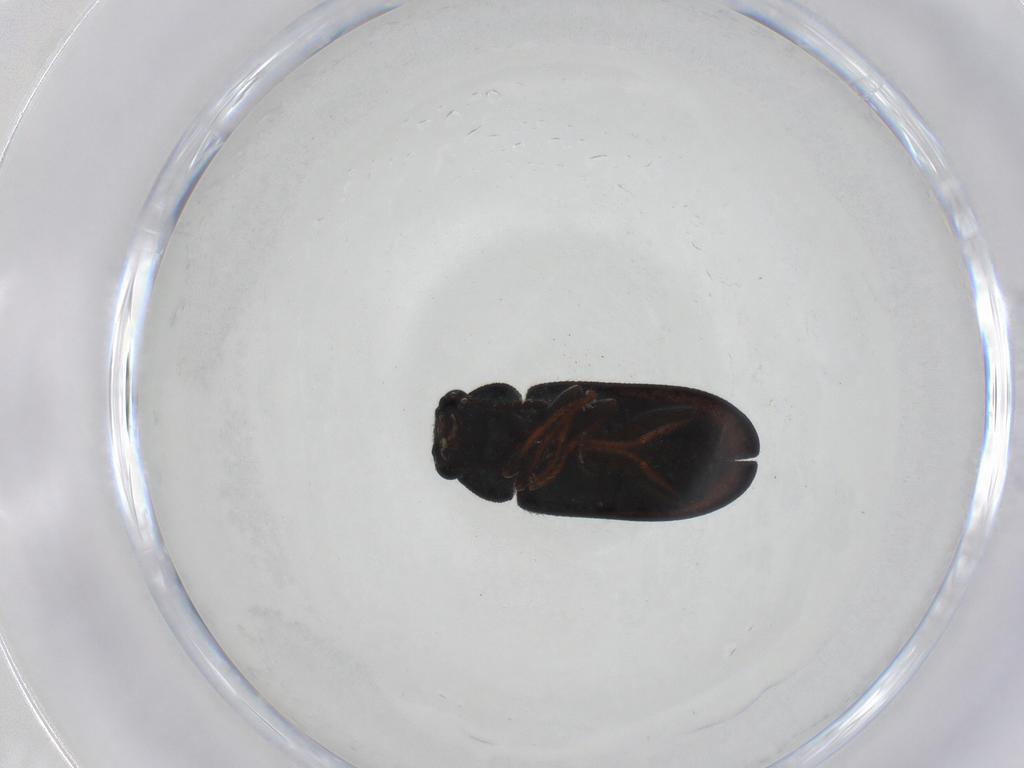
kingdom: Animalia
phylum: Arthropoda
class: Insecta
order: Coleoptera
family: Melyridae
